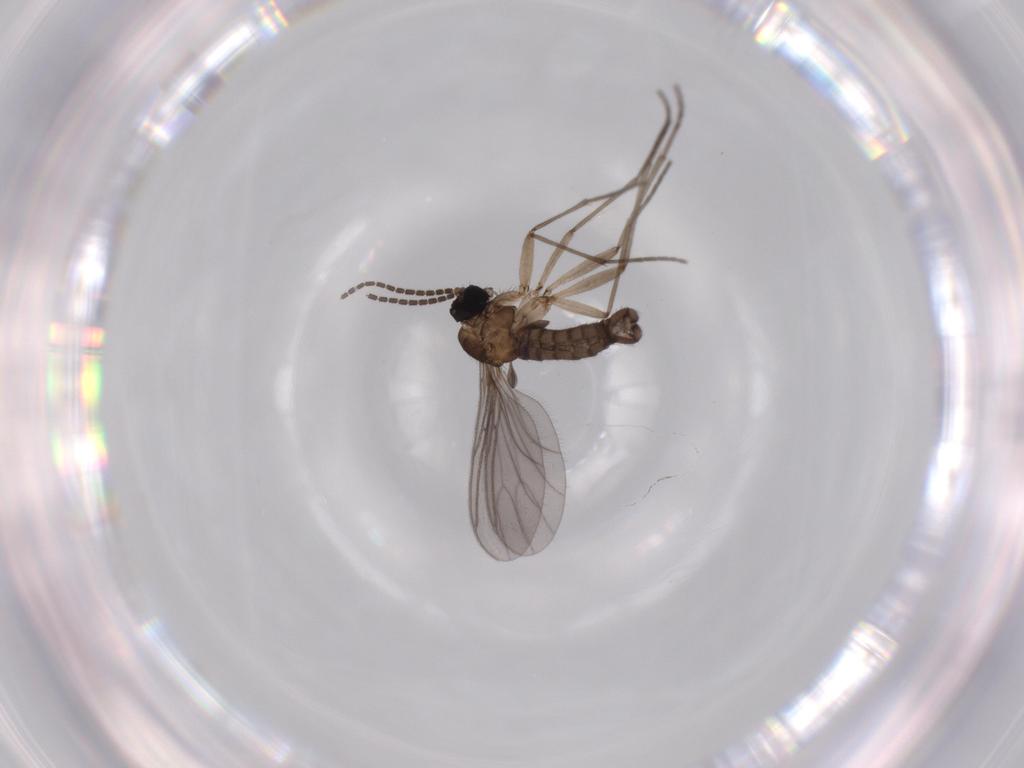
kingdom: Animalia
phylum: Arthropoda
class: Insecta
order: Diptera
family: Sciaridae
